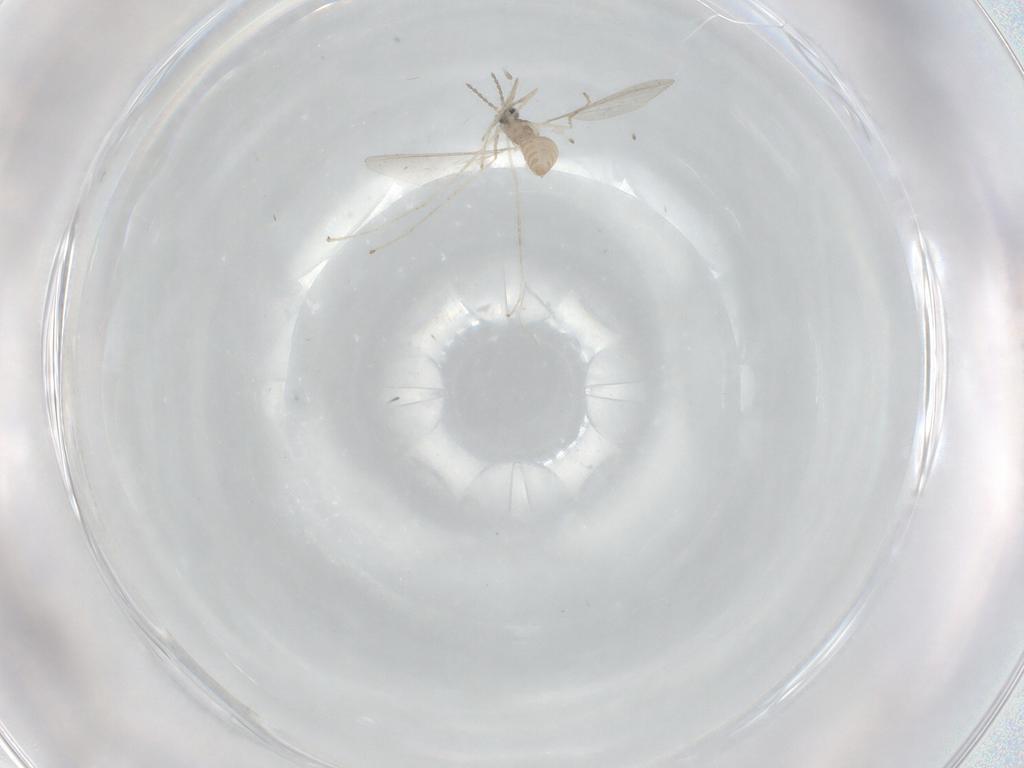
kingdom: Animalia
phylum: Arthropoda
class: Insecta
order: Diptera
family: Cecidomyiidae
